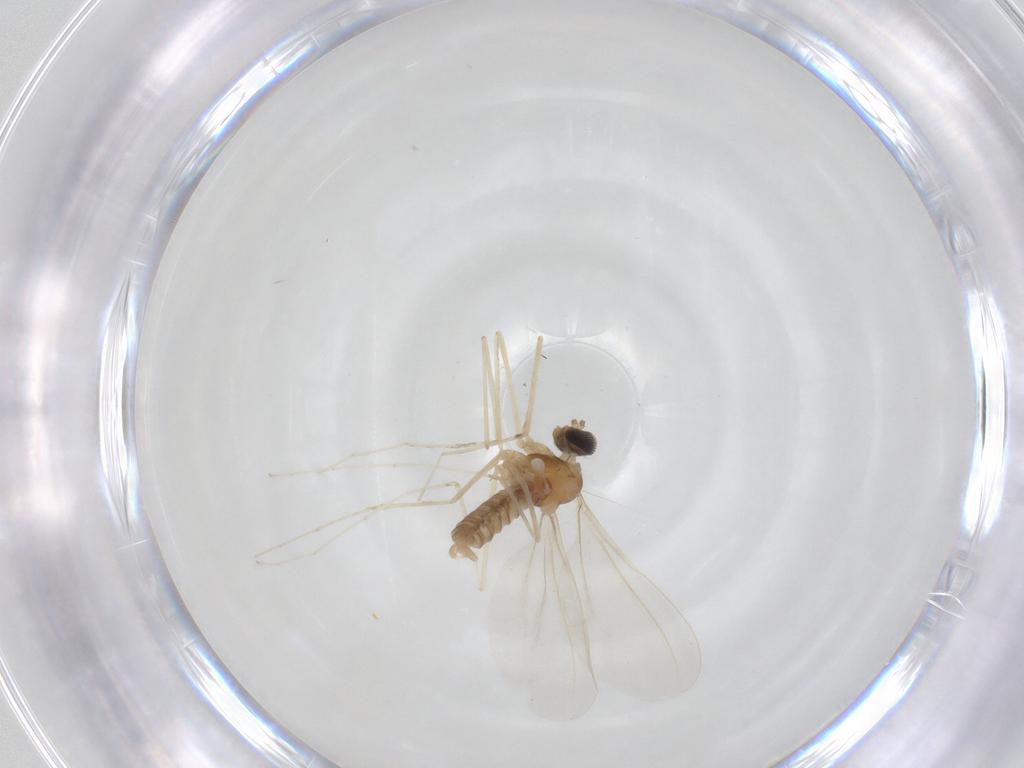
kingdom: Animalia
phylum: Arthropoda
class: Insecta
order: Diptera
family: Cecidomyiidae
